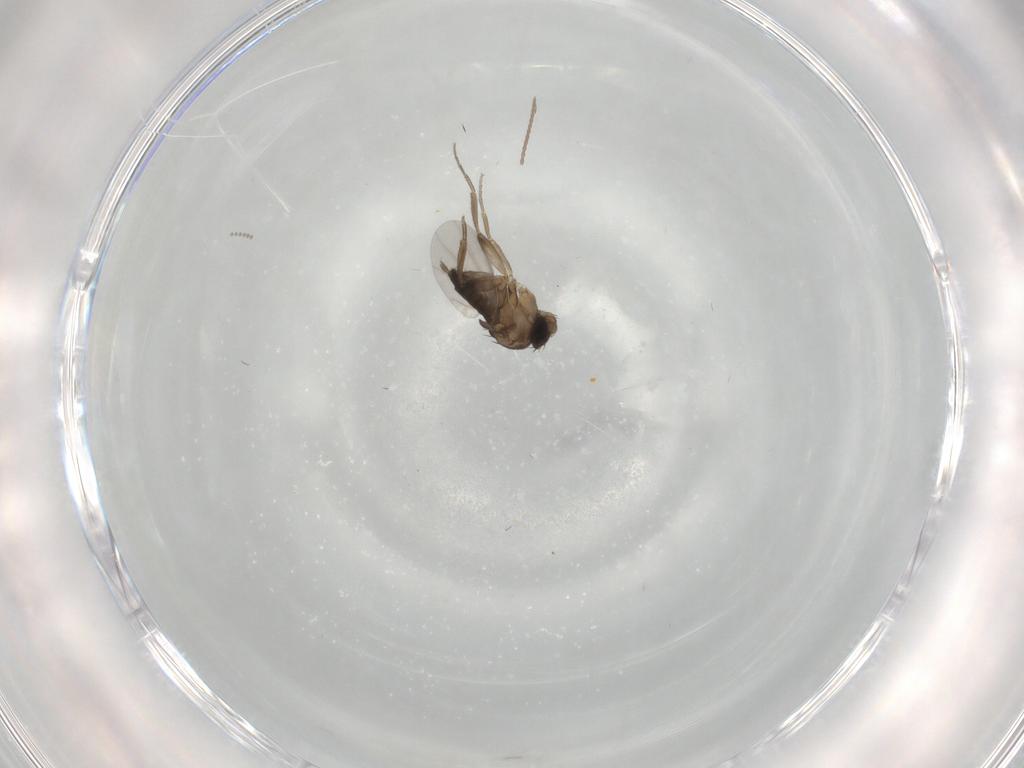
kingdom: Animalia
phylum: Arthropoda
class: Insecta
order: Diptera
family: Phoridae
